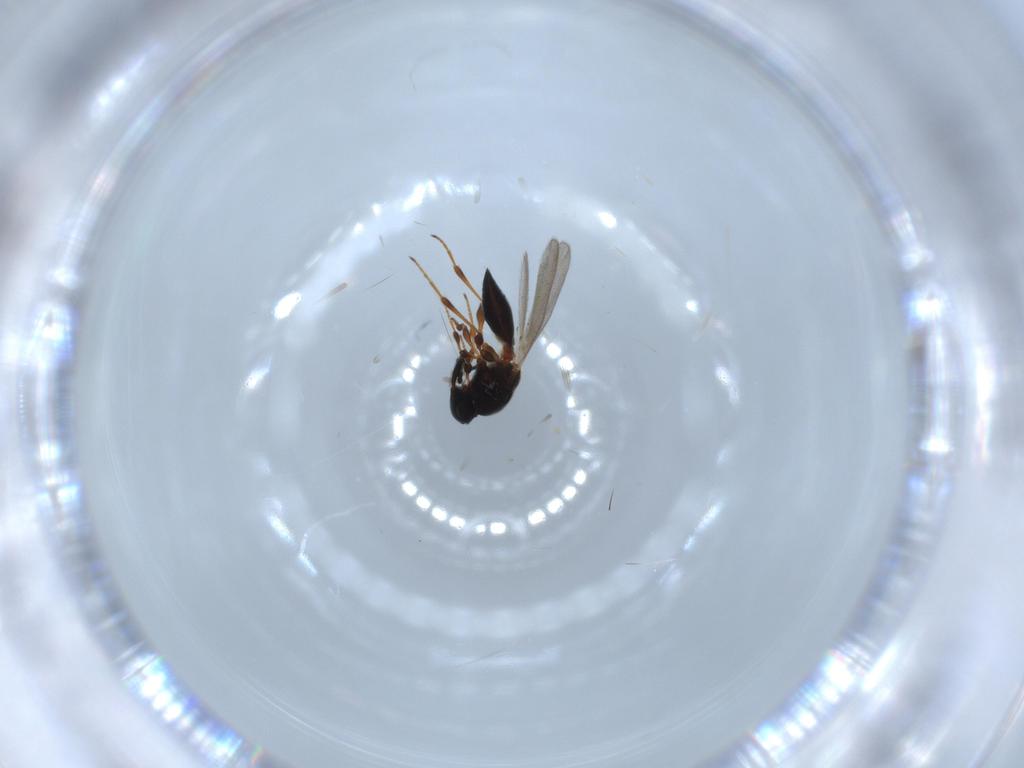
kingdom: Animalia
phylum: Arthropoda
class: Insecta
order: Hymenoptera
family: Platygastridae
